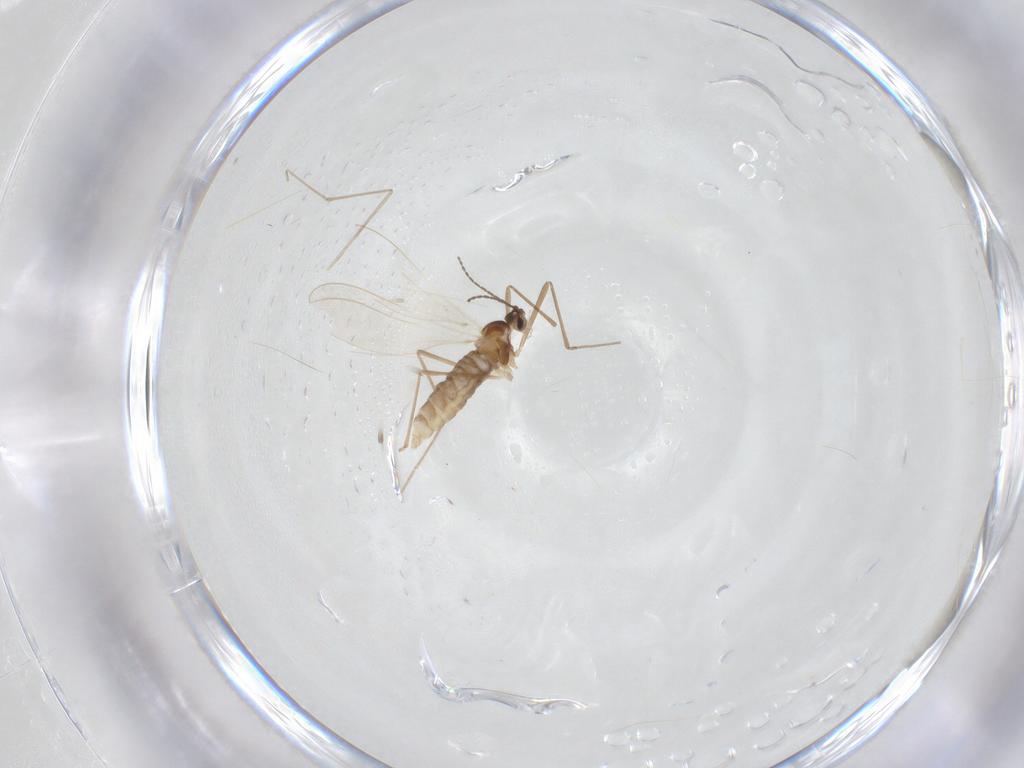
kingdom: Animalia
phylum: Arthropoda
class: Insecta
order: Diptera
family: Cecidomyiidae
